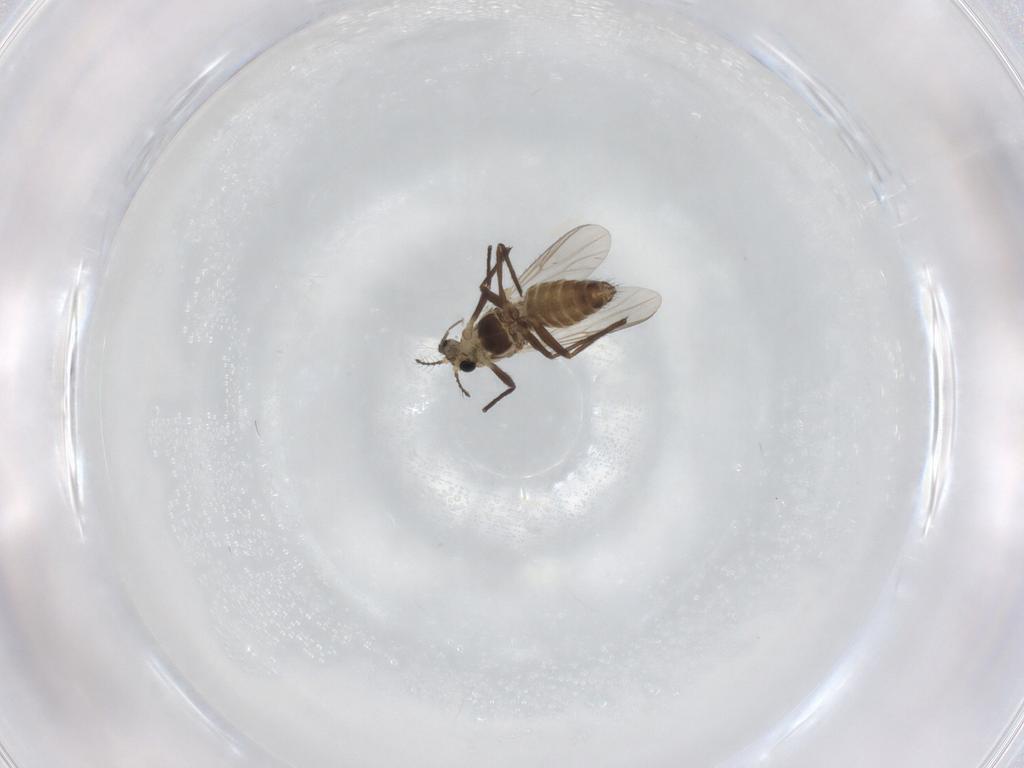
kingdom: Animalia
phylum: Arthropoda
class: Insecta
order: Diptera
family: Chironomidae
